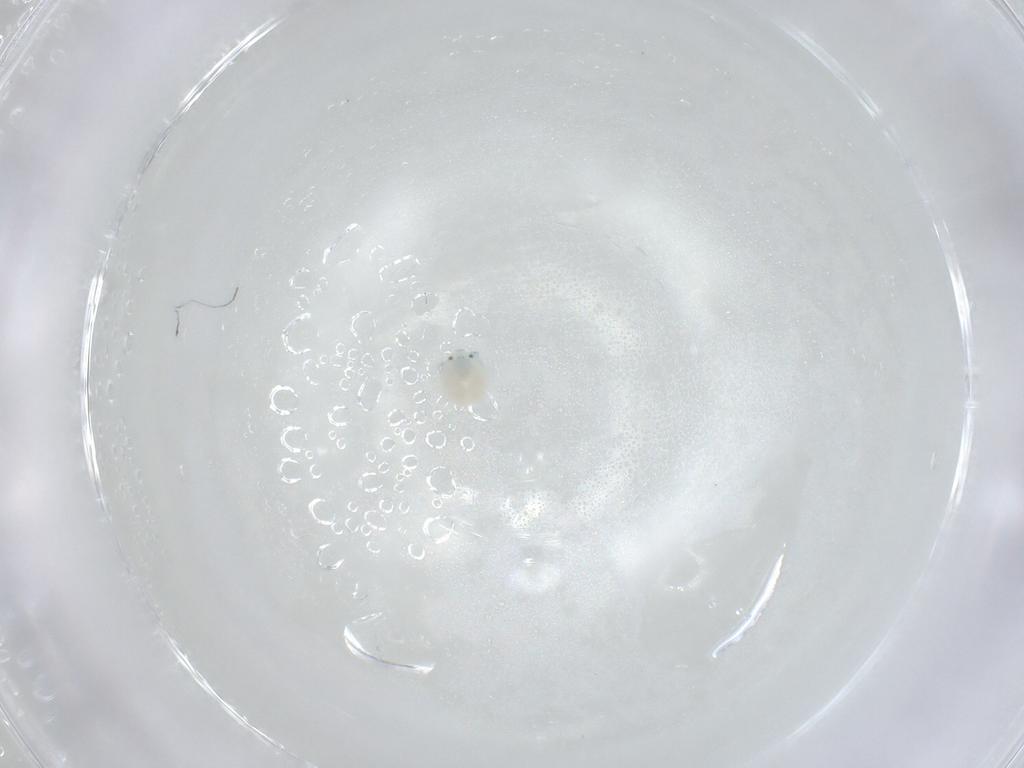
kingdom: Animalia
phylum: Arthropoda
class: Arachnida
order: Trombidiformes
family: Arrenuridae
